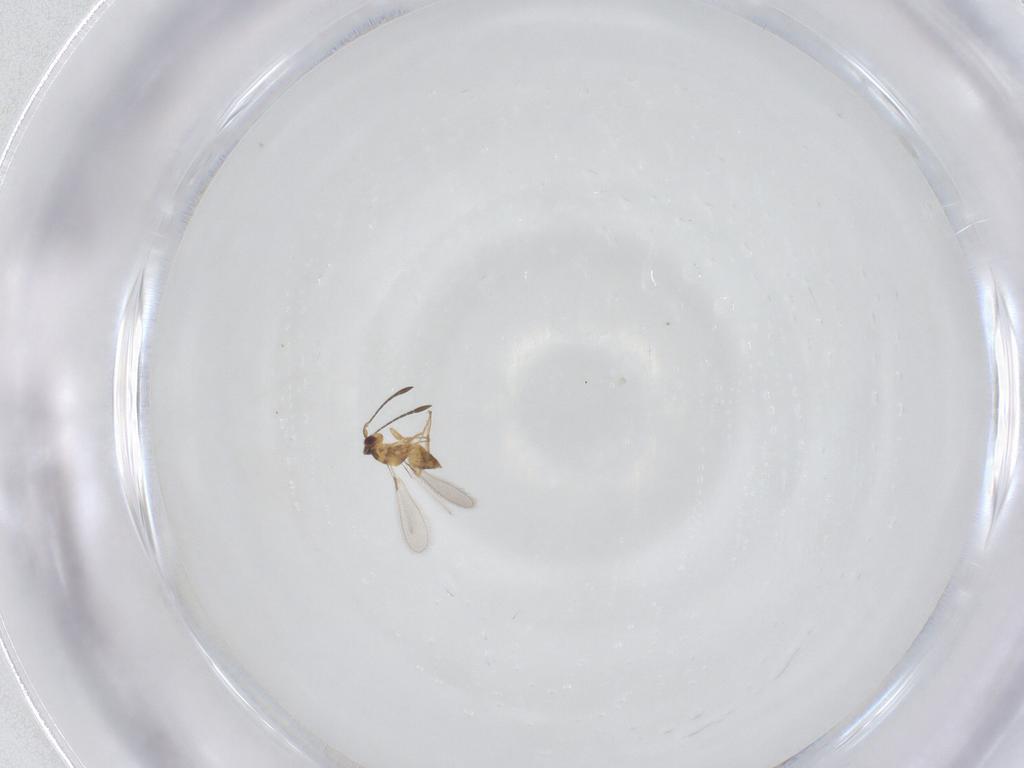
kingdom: Animalia
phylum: Arthropoda
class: Insecta
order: Hymenoptera
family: Mymaridae
